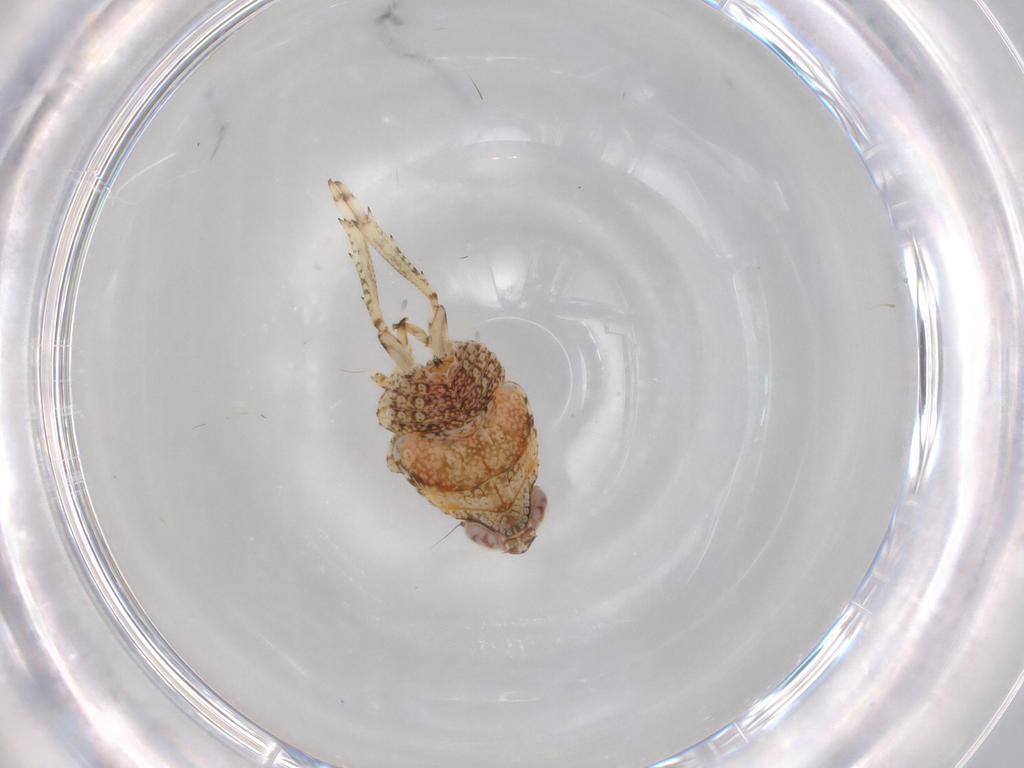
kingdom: Animalia
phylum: Arthropoda
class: Insecta
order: Hemiptera
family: Issidae
